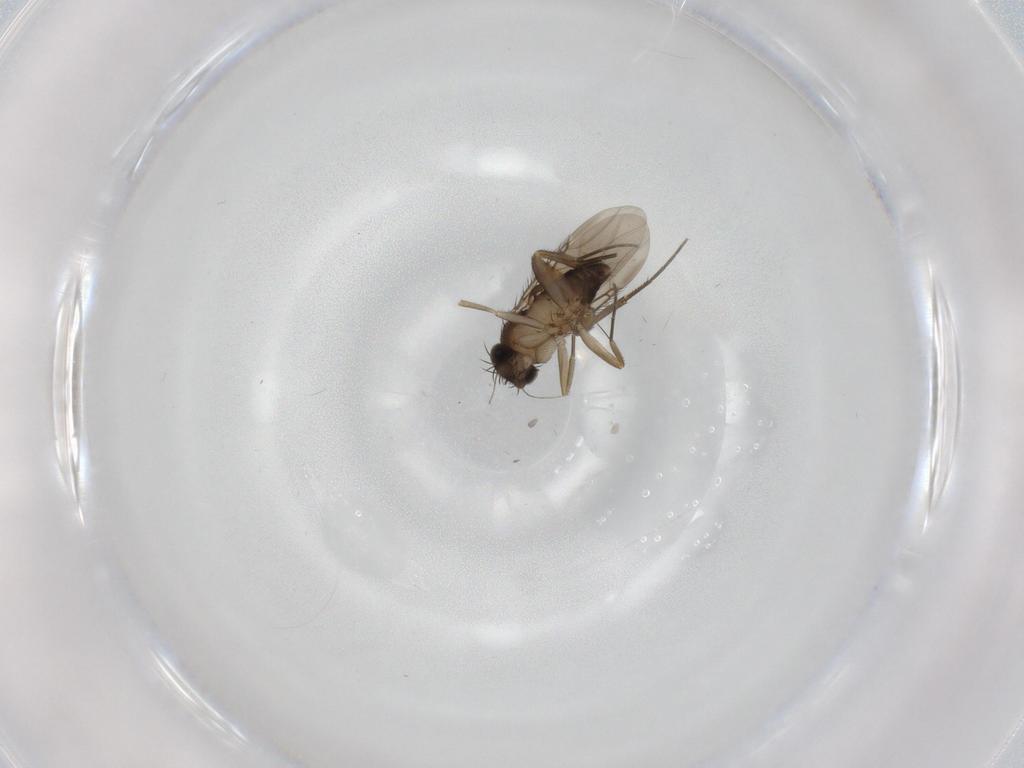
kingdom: Animalia
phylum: Arthropoda
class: Insecta
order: Diptera
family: Phoridae
